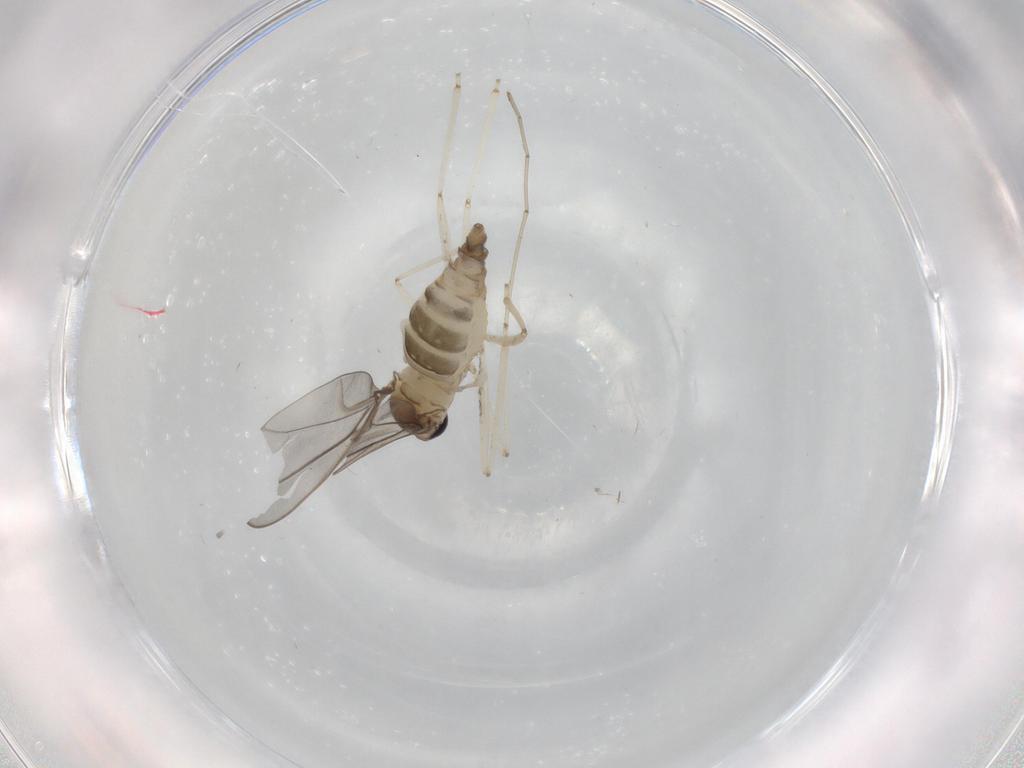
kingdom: Animalia
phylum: Arthropoda
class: Insecta
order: Diptera
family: Cecidomyiidae
